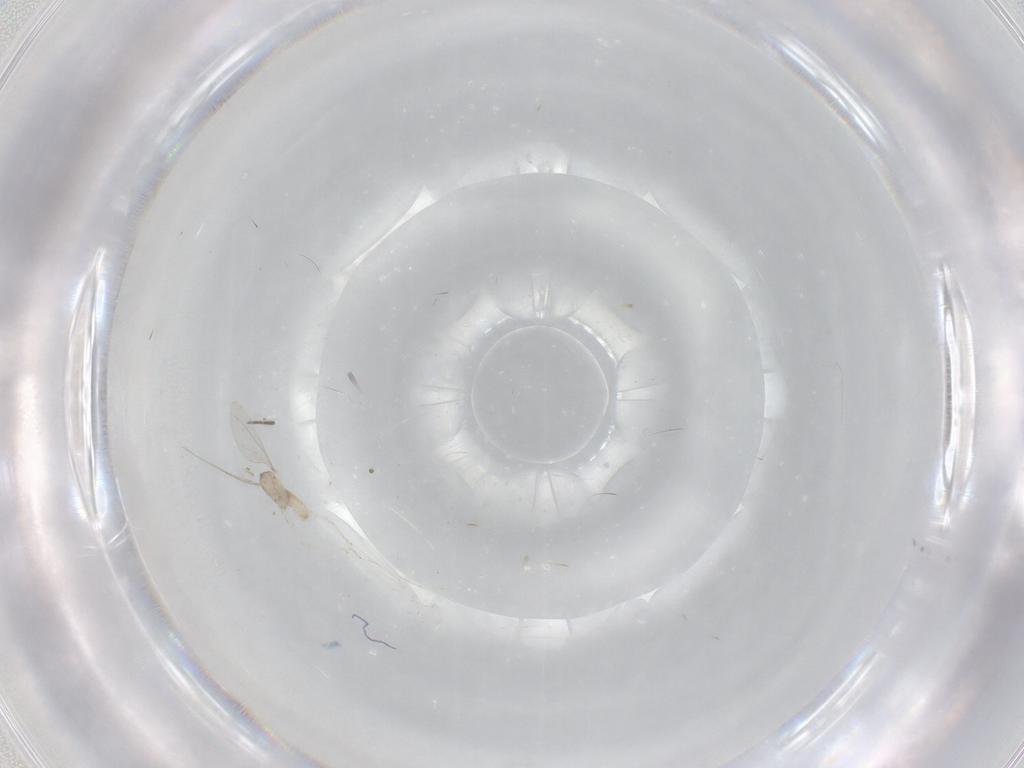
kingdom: Animalia
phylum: Arthropoda
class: Insecta
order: Diptera
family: Cecidomyiidae
